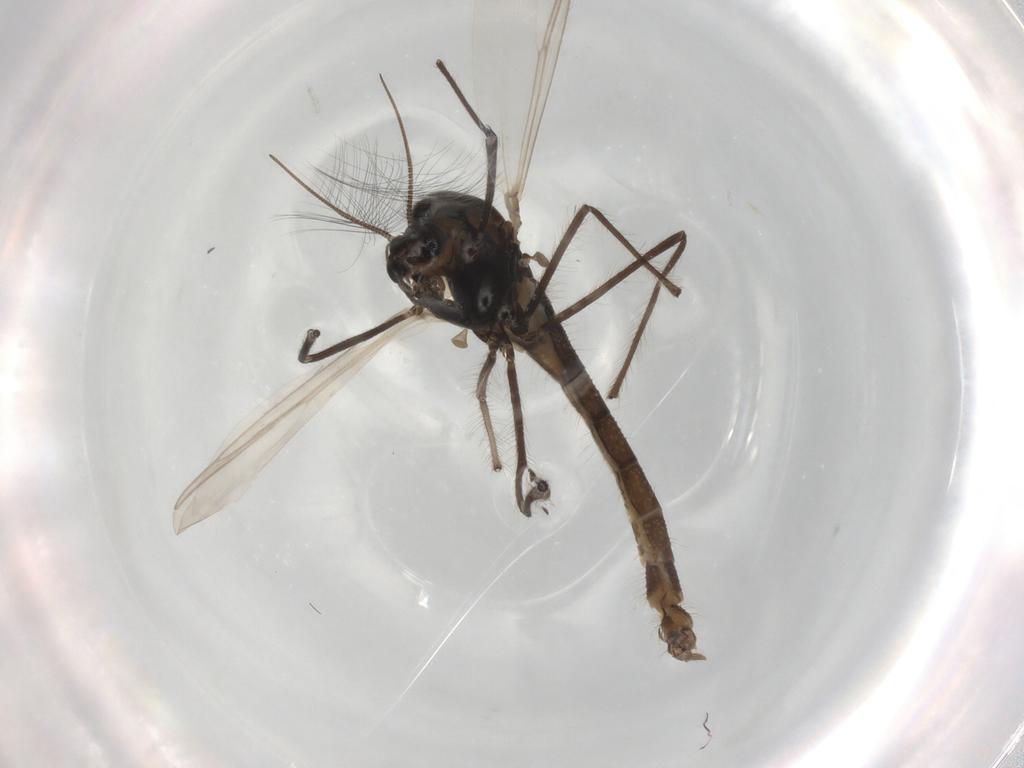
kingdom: Animalia
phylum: Arthropoda
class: Insecta
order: Diptera
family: Chironomidae
